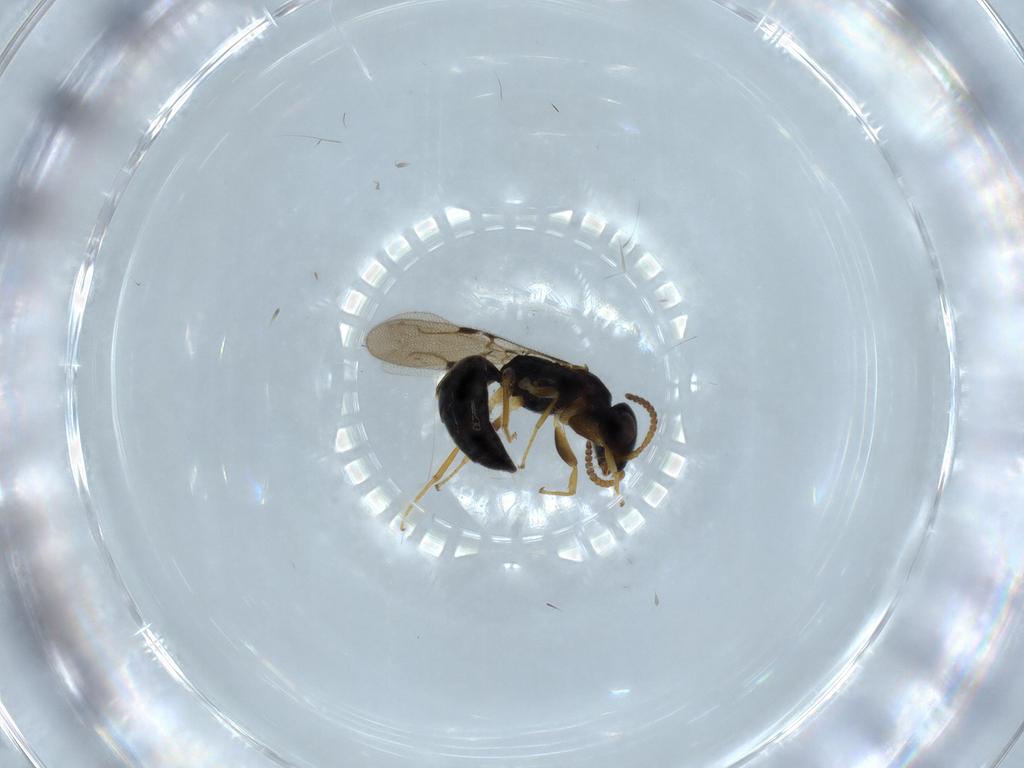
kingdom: Animalia
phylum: Arthropoda
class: Insecta
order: Hymenoptera
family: Bethylidae
